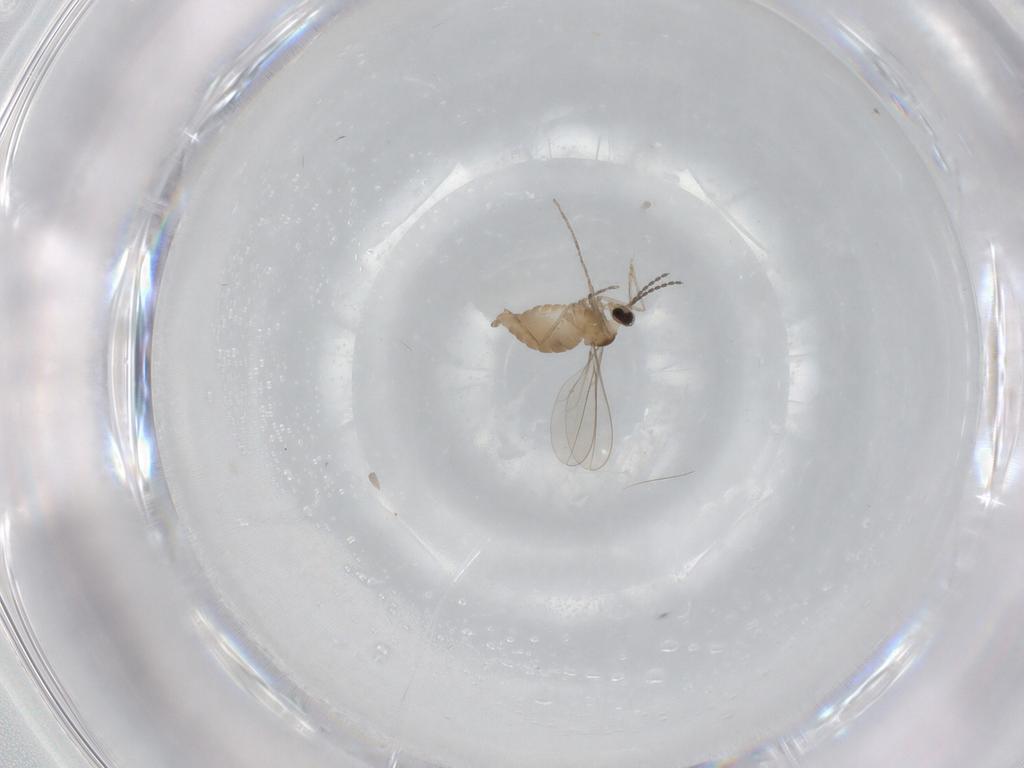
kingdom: Animalia
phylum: Arthropoda
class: Insecta
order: Diptera
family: Cecidomyiidae
